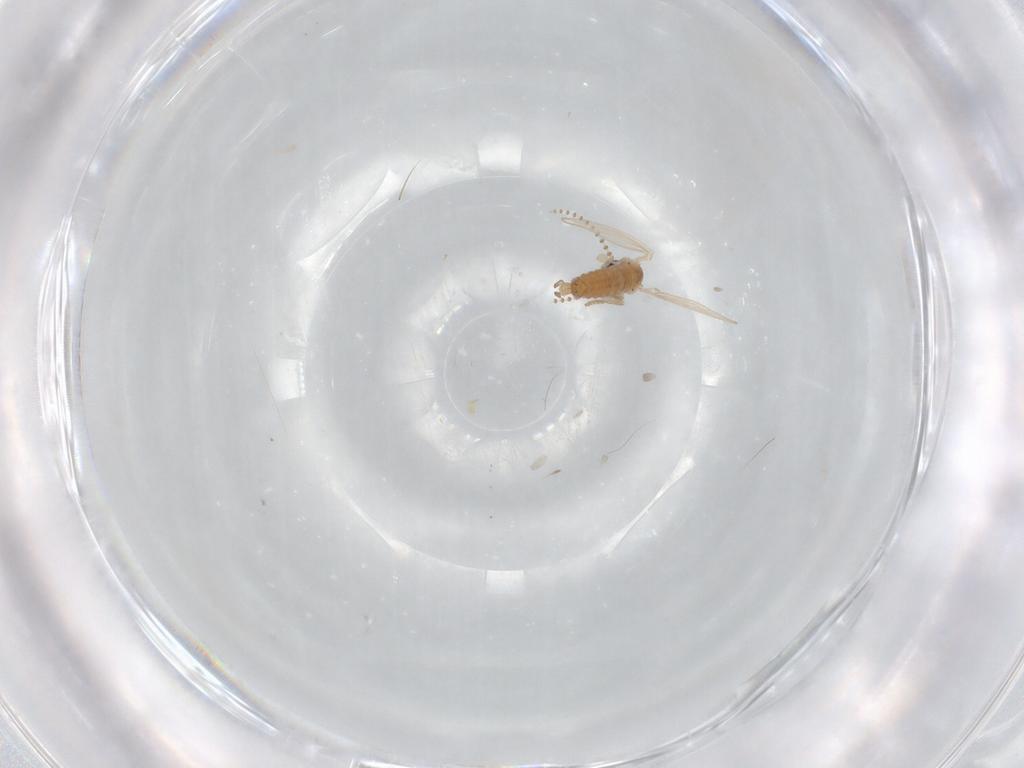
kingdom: Animalia
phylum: Arthropoda
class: Insecta
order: Diptera
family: Psychodidae
